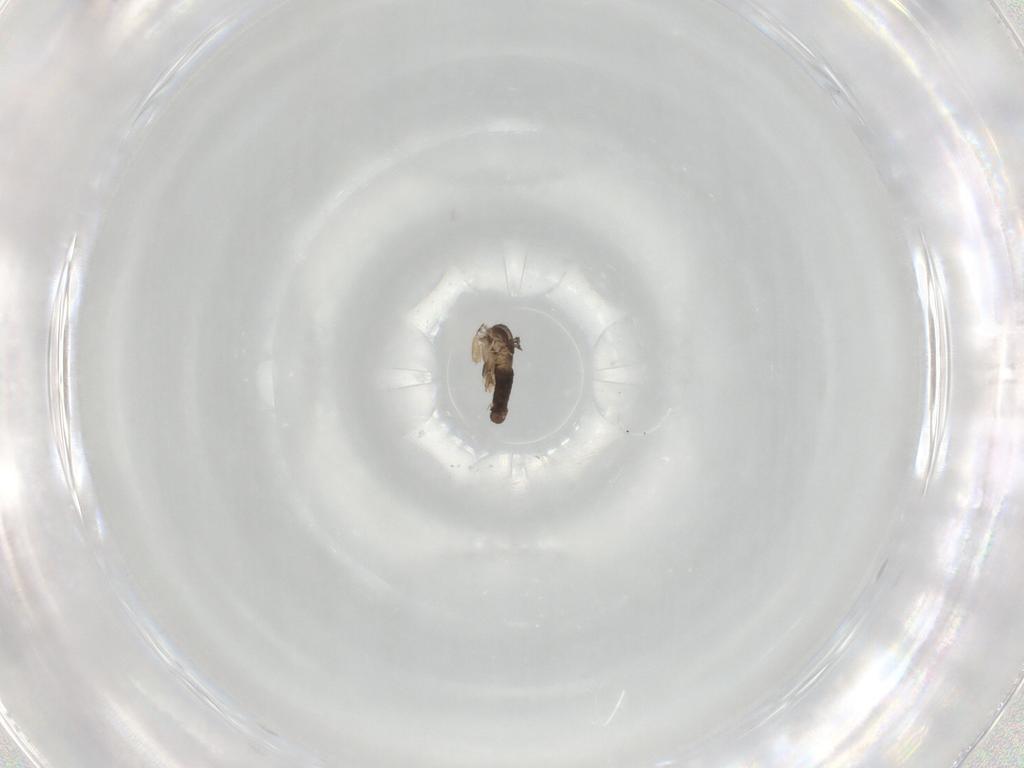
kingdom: Animalia
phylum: Arthropoda
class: Insecta
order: Diptera
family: Phoridae
